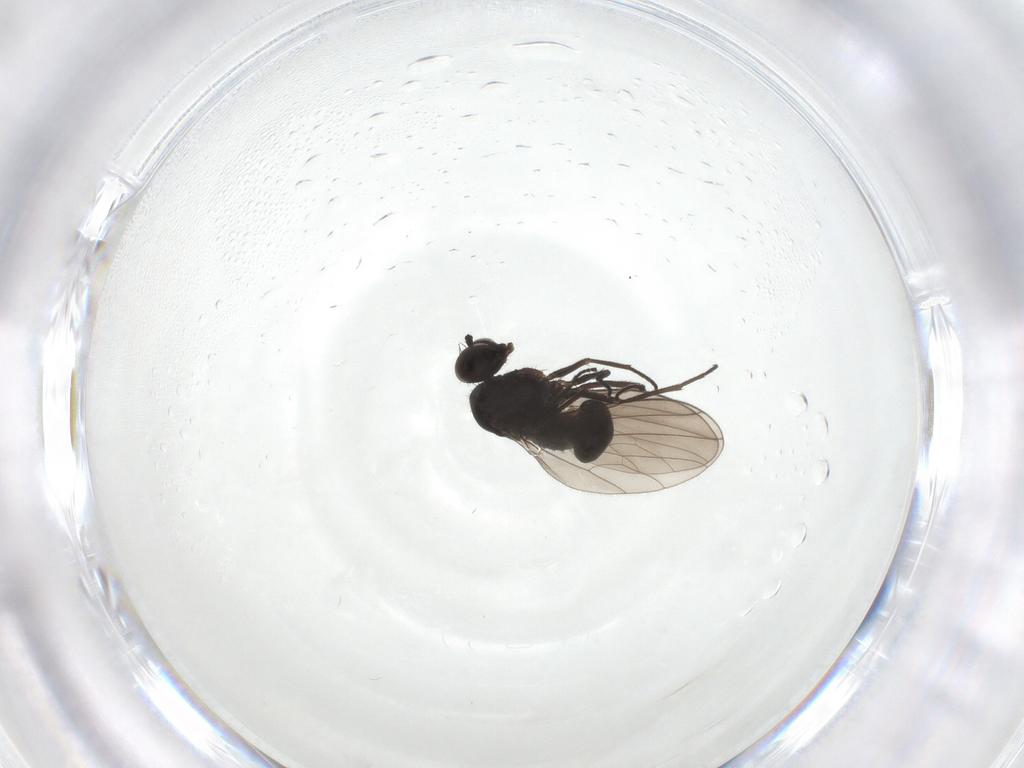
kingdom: Animalia
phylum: Arthropoda
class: Insecta
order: Diptera
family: Dolichopodidae
